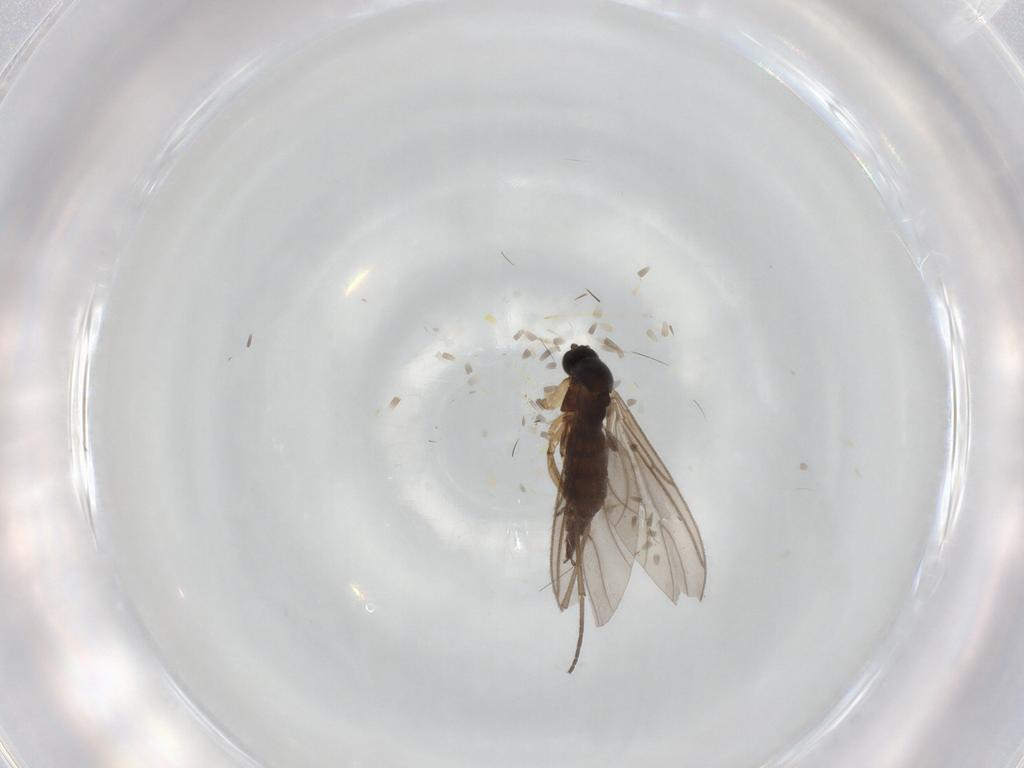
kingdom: Animalia
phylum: Arthropoda
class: Insecta
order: Diptera
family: Sciaridae
